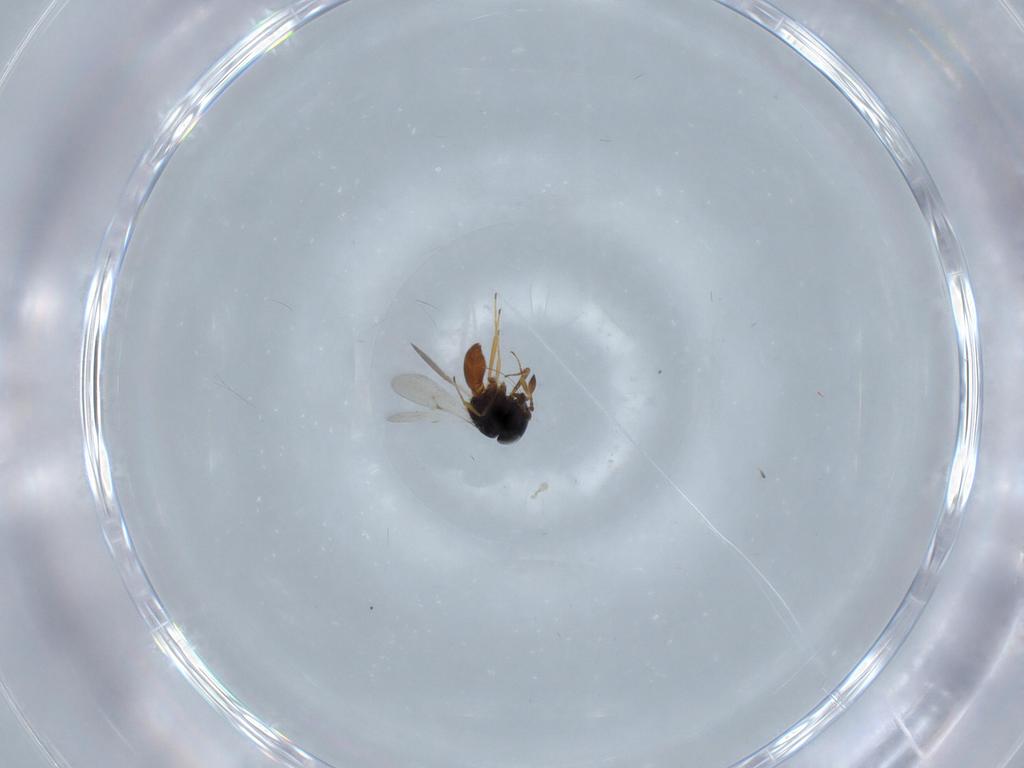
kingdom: Animalia
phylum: Arthropoda
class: Insecta
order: Hymenoptera
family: Scelionidae
